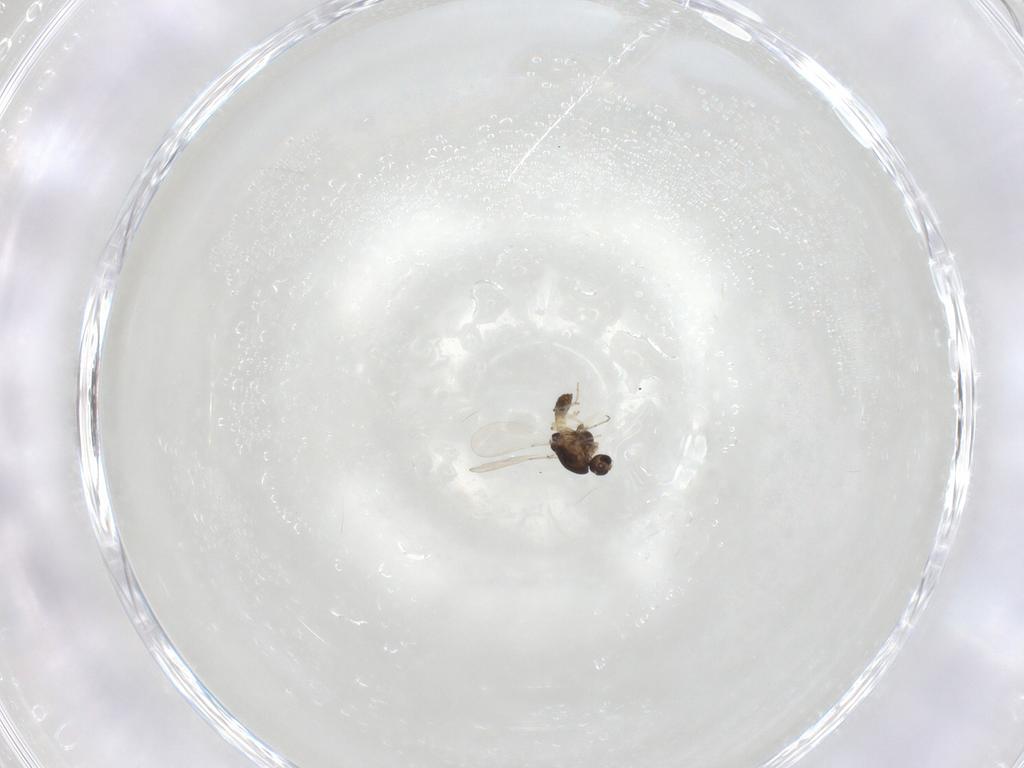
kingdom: Animalia
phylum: Arthropoda
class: Insecta
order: Diptera
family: Chironomidae
